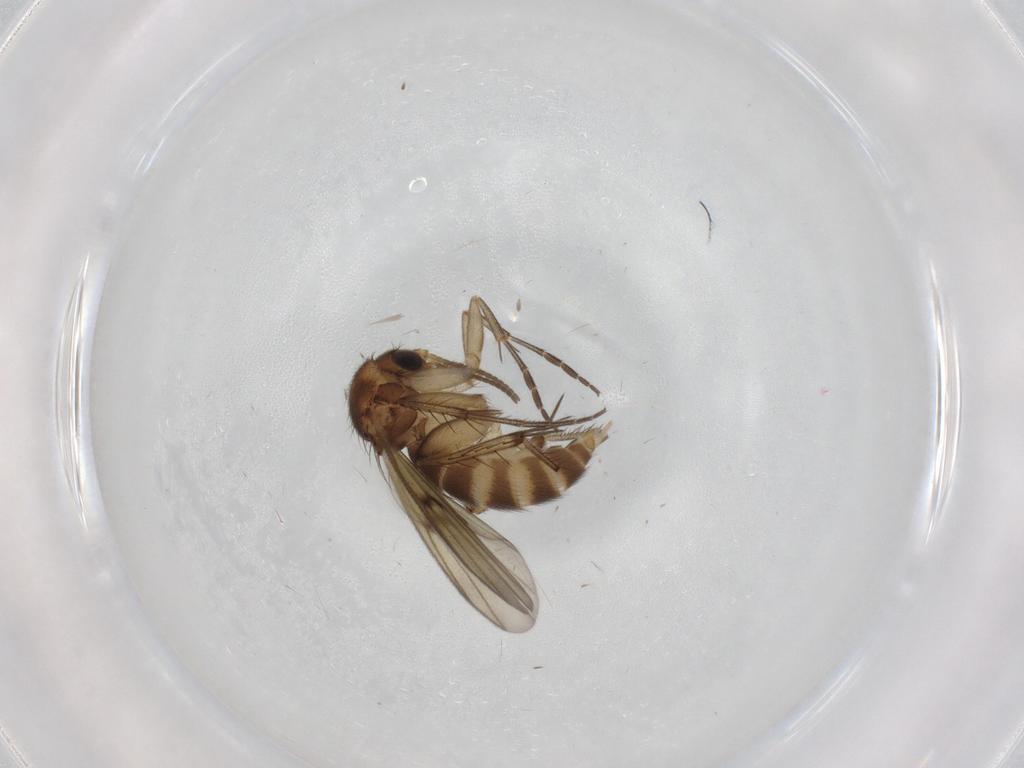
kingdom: Animalia
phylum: Arthropoda
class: Insecta
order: Diptera
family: Mycetophilidae
